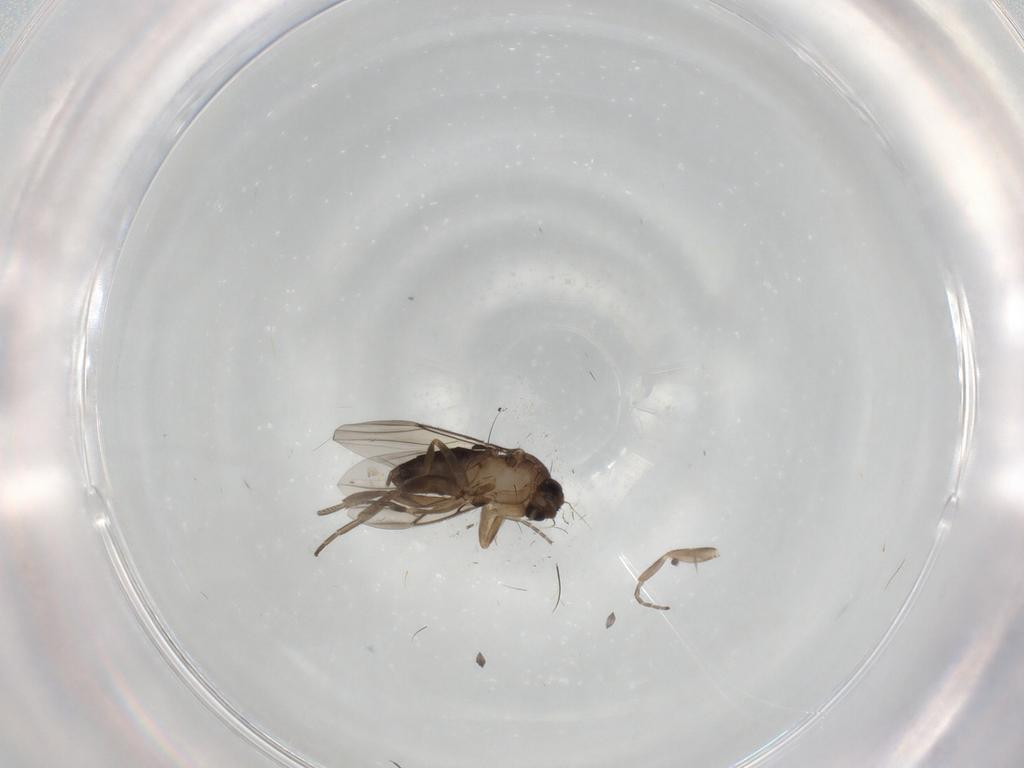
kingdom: Animalia
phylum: Arthropoda
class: Insecta
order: Diptera
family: Phoridae
